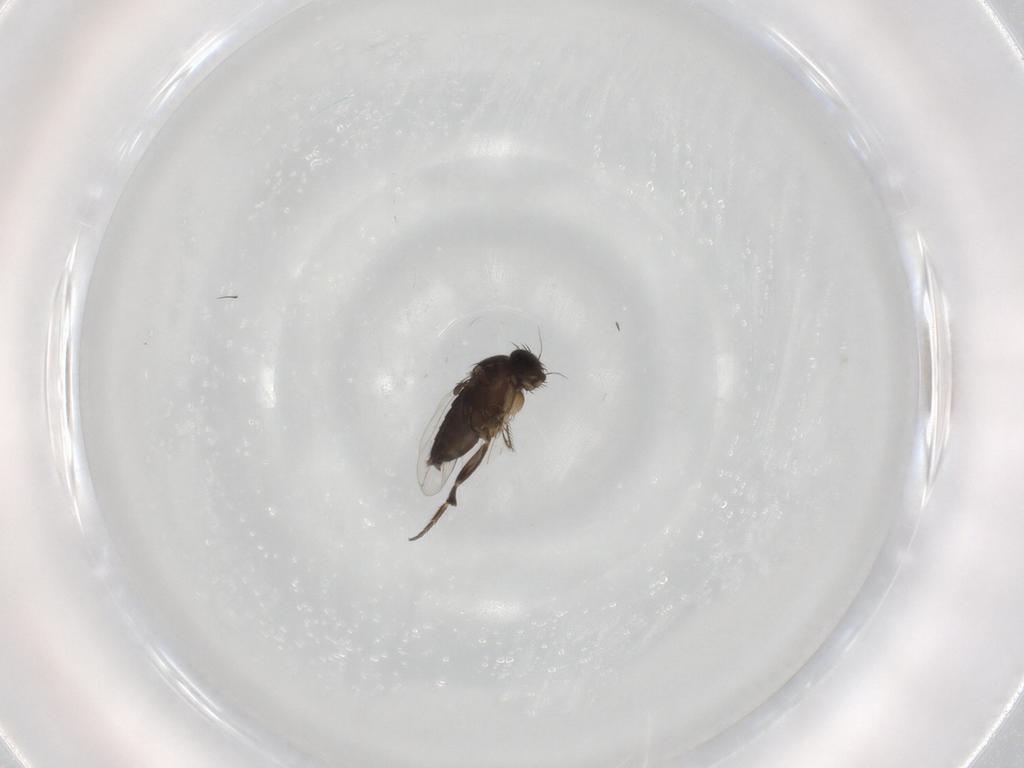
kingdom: Animalia
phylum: Arthropoda
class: Insecta
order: Diptera
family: Phoridae
